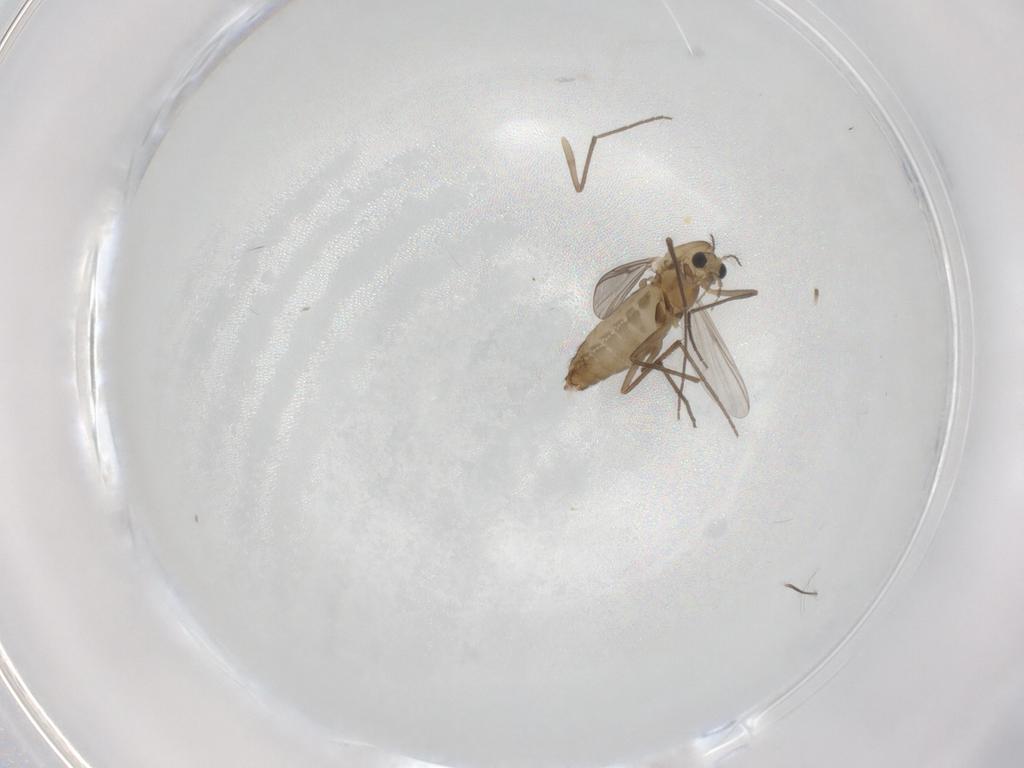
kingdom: Animalia
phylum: Arthropoda
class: Insecta
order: Diptera
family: Chironomidae
